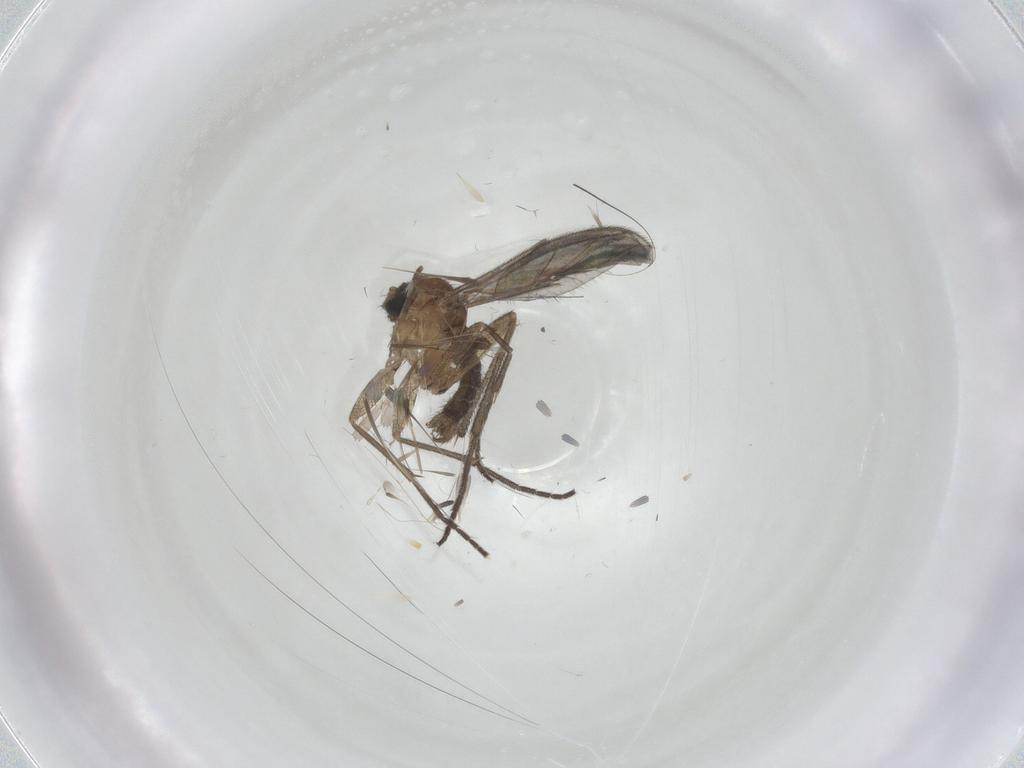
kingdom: Animalia
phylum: Arthropoda
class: Insecta
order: Diptera
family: Sciaridae
